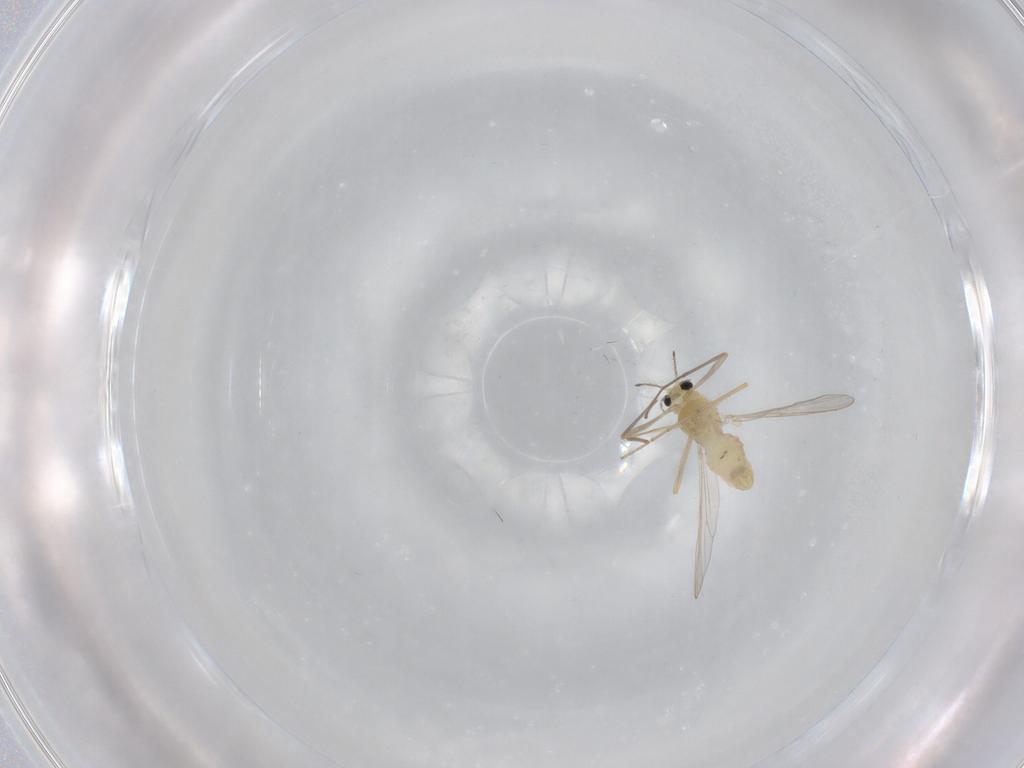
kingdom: Animalia
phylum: Arthropoda
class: Insecta
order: Diptera
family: Chironomidae
